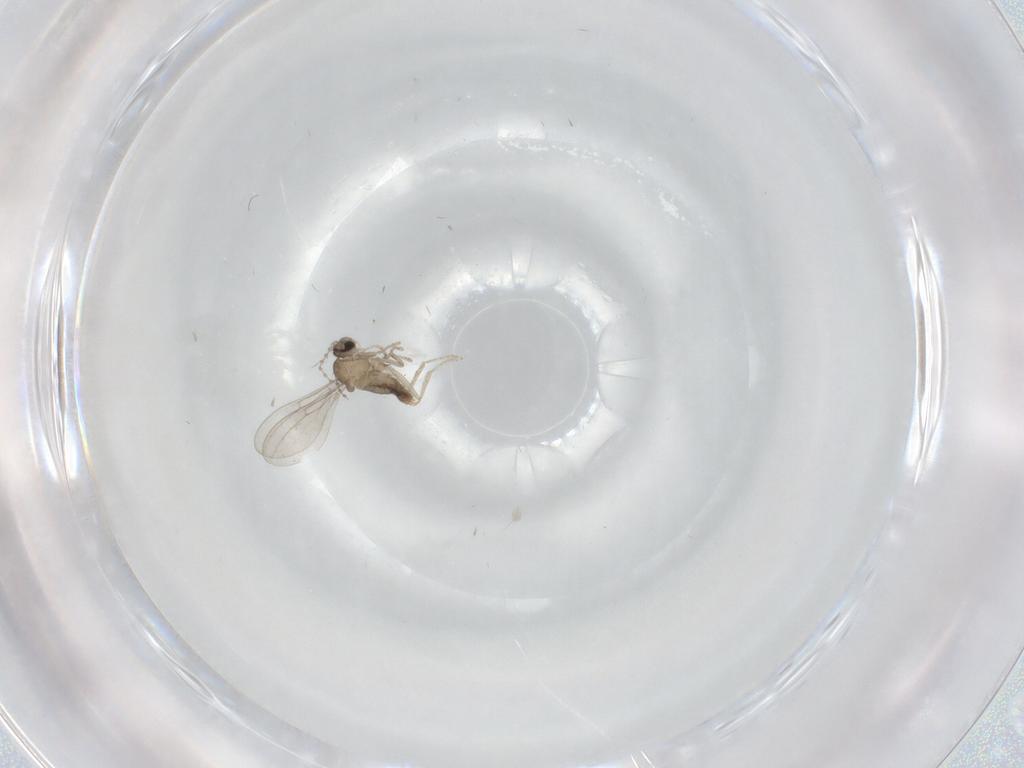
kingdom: Animalia
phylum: Arthropoda
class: Insecta
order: Diptera
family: Cecidomyiidae
